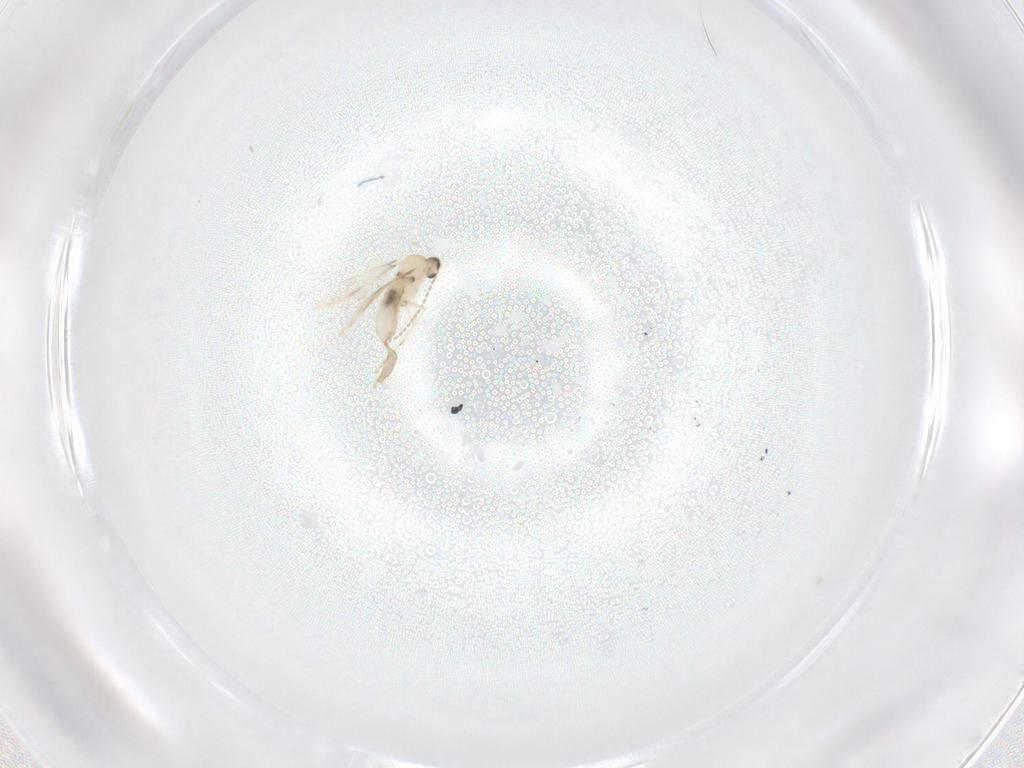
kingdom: Animalia
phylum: Arthropoda
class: Insecta
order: Diptera
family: Cecidomyiidae
